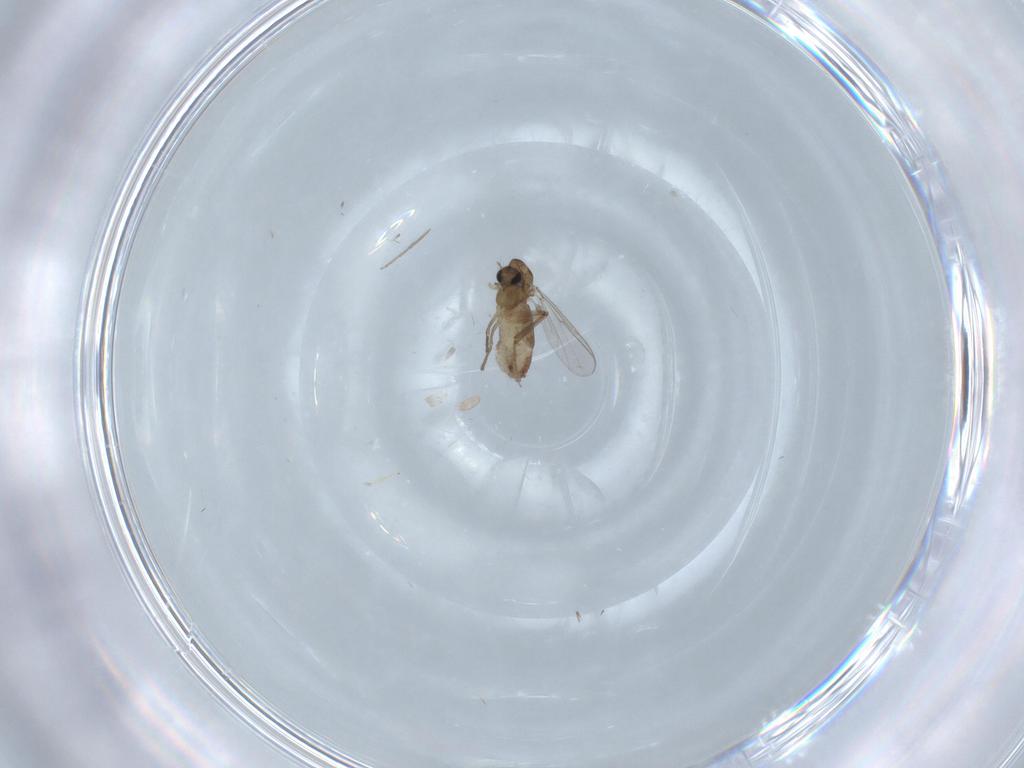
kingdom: Animalia
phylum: Arthropoda
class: Insecta
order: Diptera
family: Chironomidae
